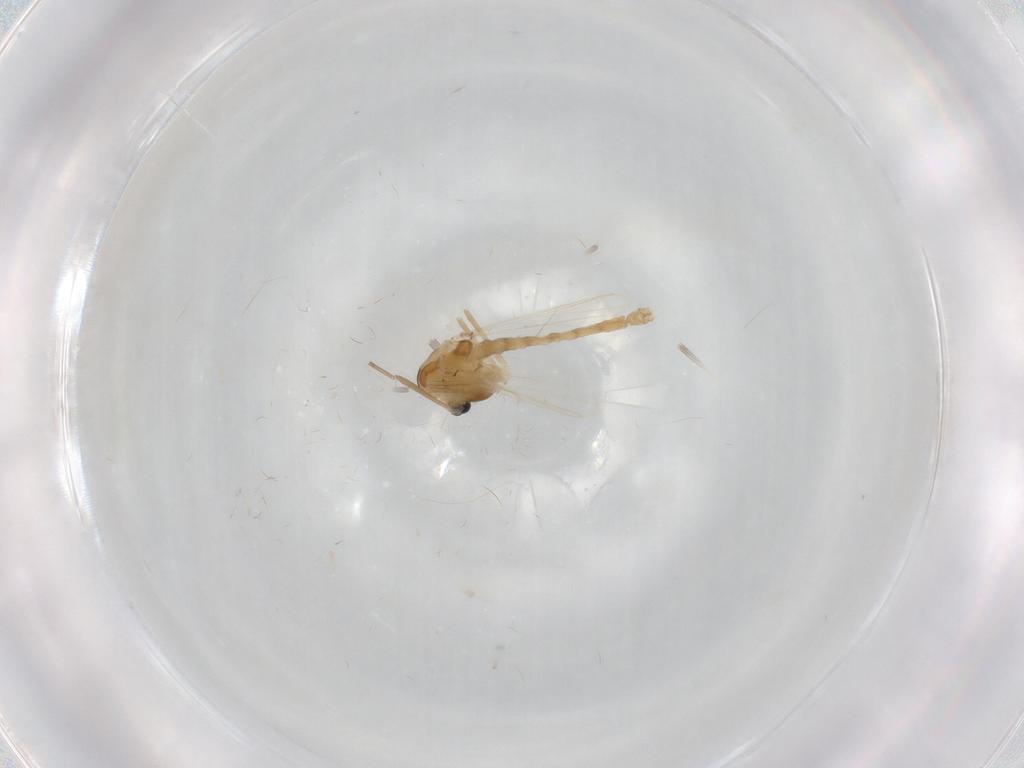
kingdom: Animalia
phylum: Arthropoda
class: Insecta
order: Diptera
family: Chironomidae
